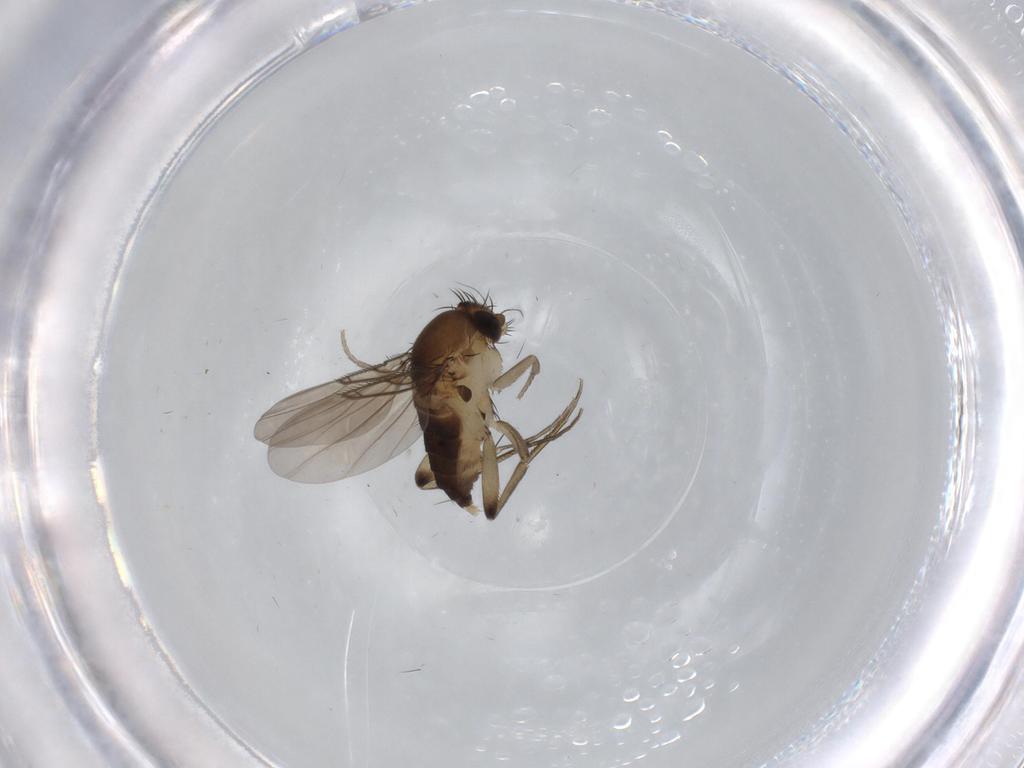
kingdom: Animalia
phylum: Arthropoda
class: Insecta
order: Diptera
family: Phoridae
